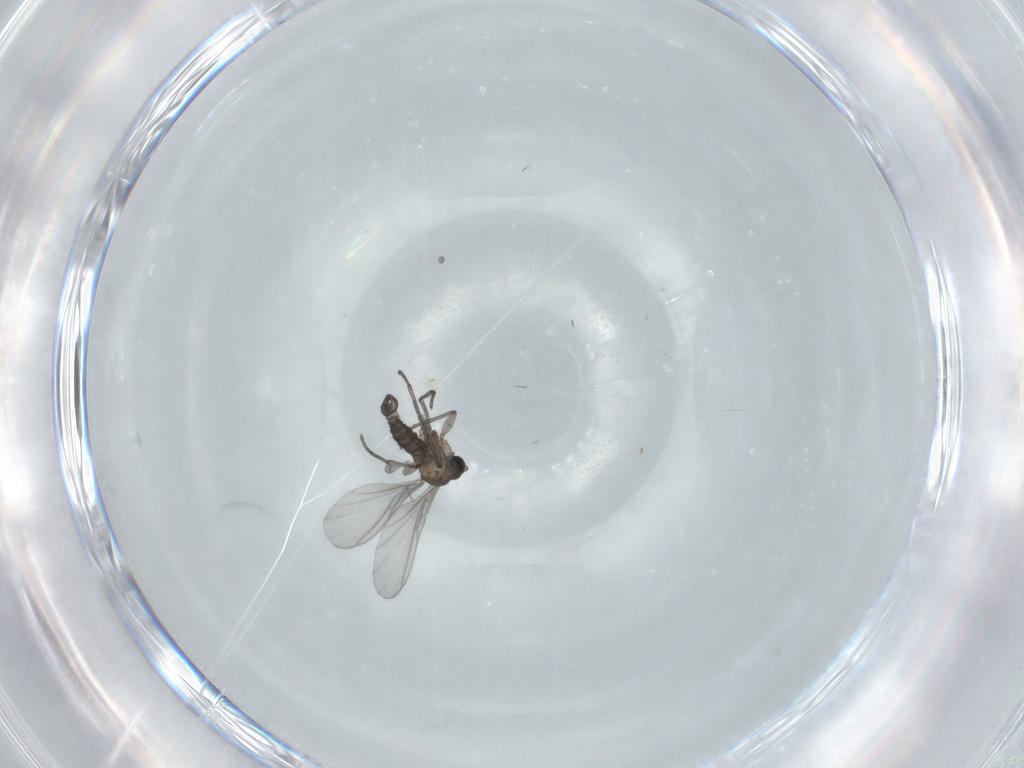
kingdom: Animalia
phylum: Arthropoda
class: Insecta
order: Diptera
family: Sciaridae
